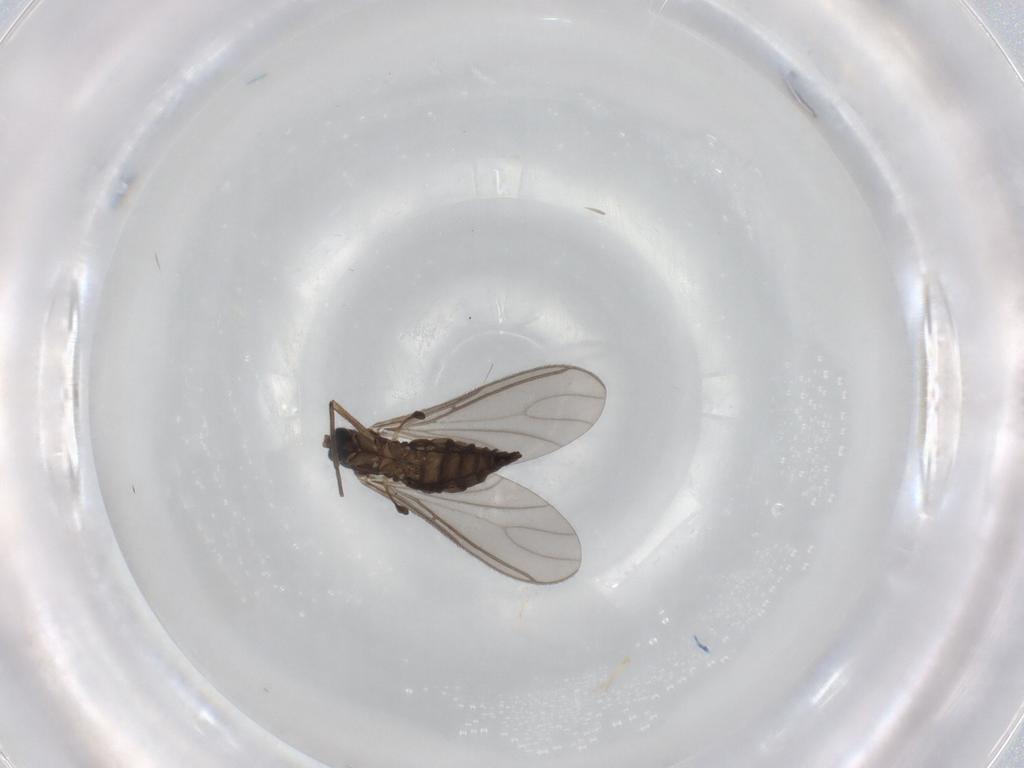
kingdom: Animalia
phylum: Arthropoda
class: Insecta
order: Diptera
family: Sciaridae
